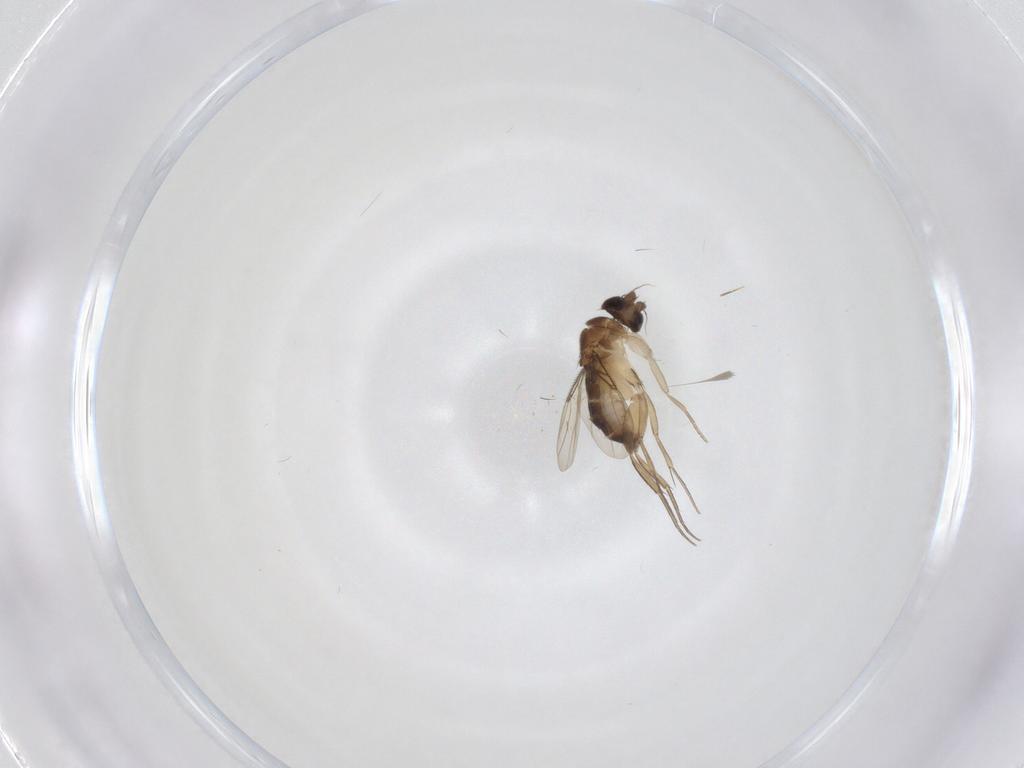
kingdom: Animalia
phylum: Arthropoda
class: Insecta
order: Diptera
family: Phoridae
